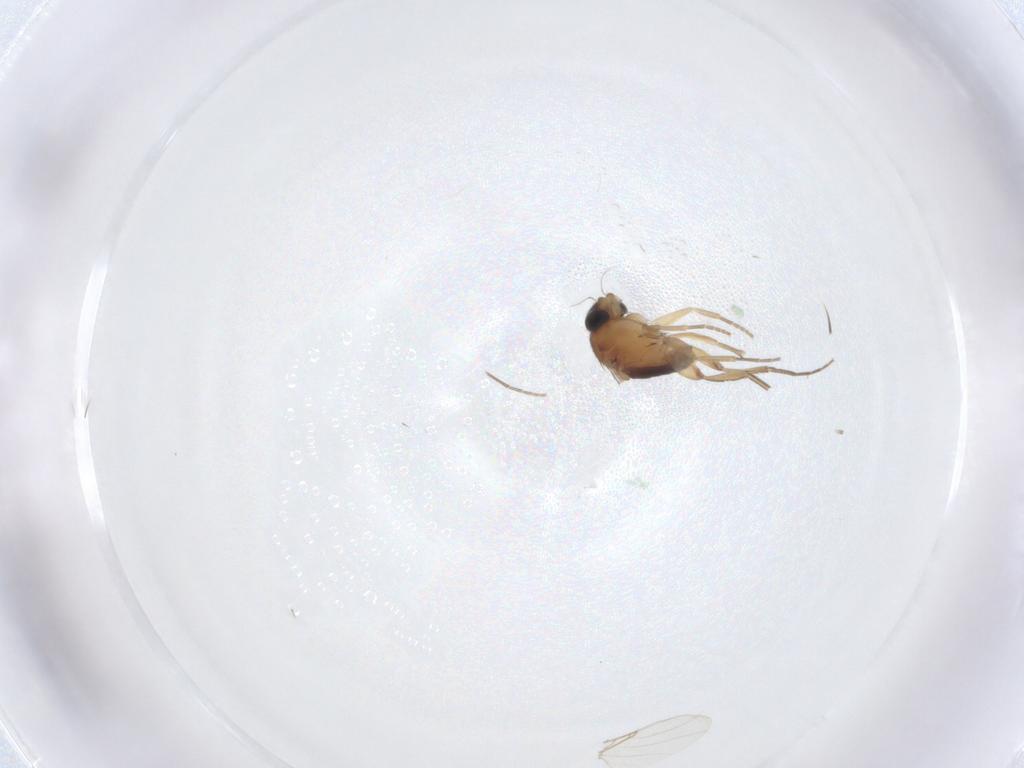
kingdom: Animalia
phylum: Arthropoda
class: Insecta
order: Diptera
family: Phoridae
